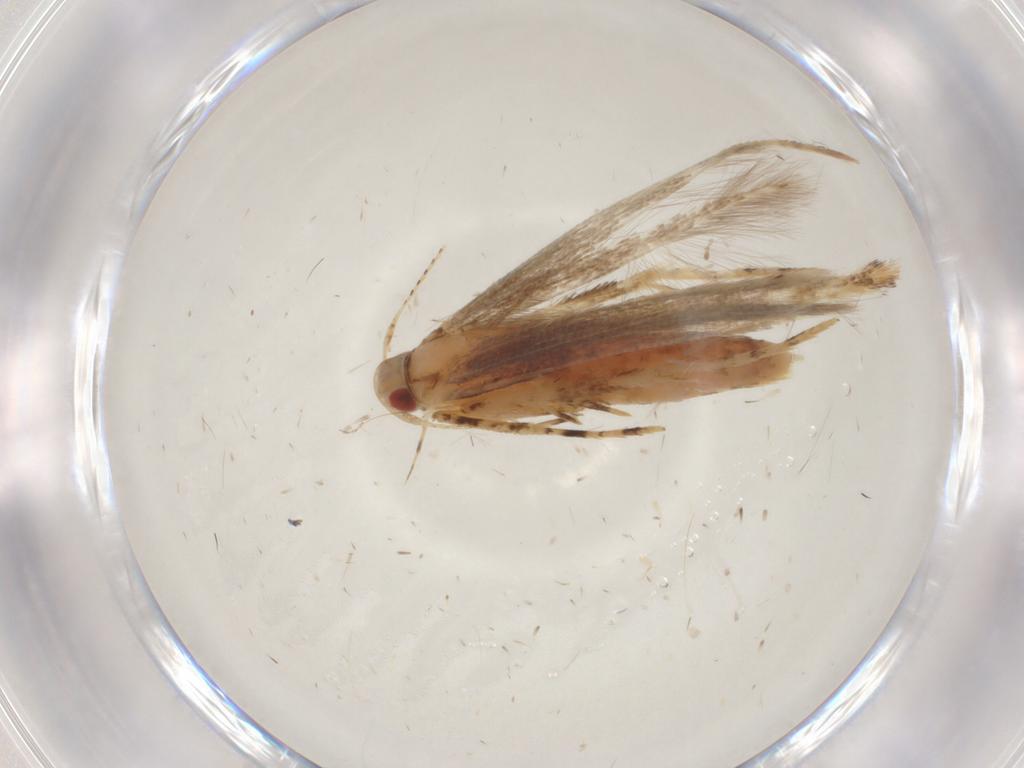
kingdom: Animalia
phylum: Arthropoda
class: Insecta
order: Lepidoptera
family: Cosmopterigidae
